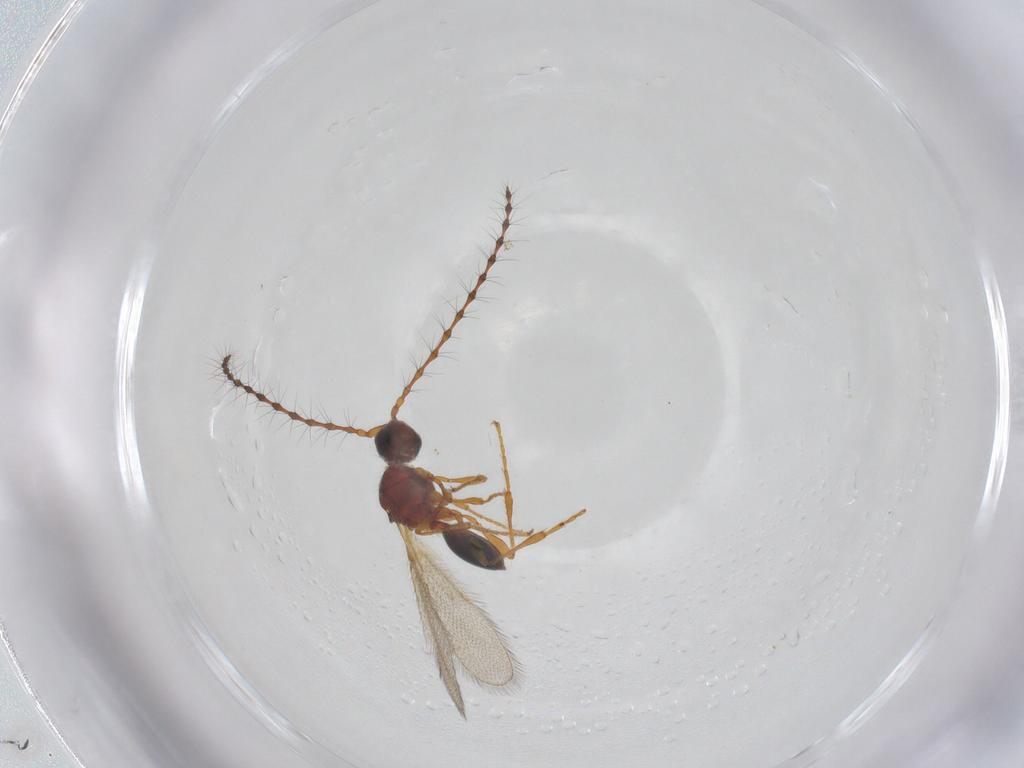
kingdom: Animalia
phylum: Arthropoda
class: Insecta
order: Hymenoptera
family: Diapriidae
